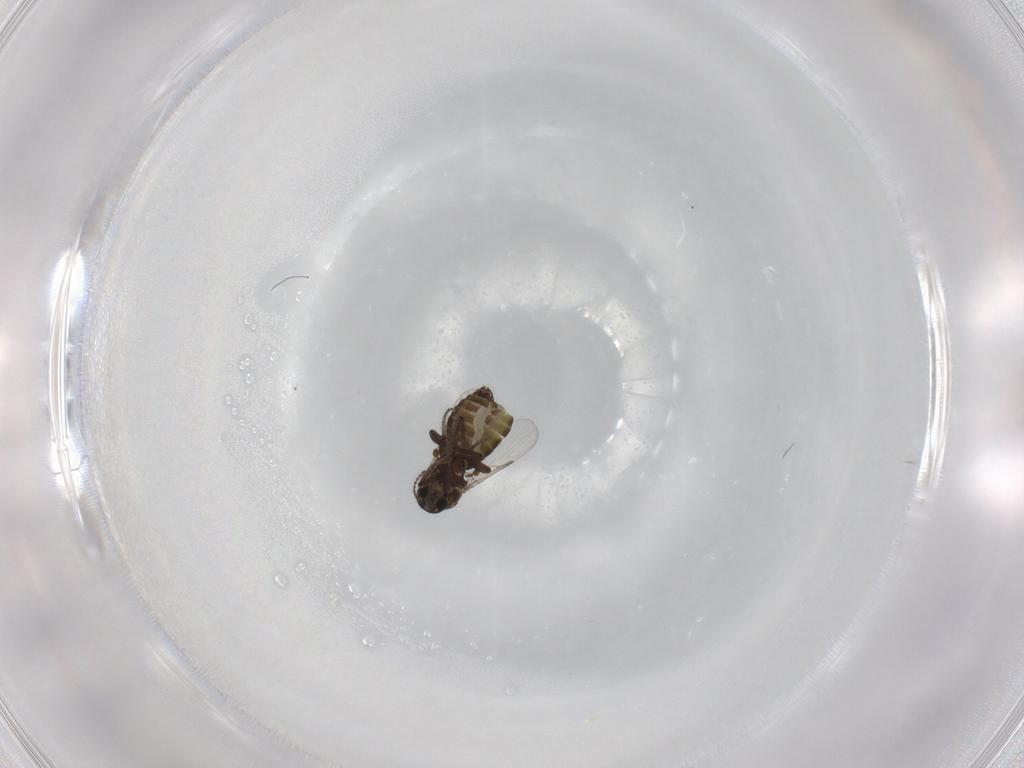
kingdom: Animalia
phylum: Arthropoda
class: Insecta
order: Diptera
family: Ceratopogonidae
